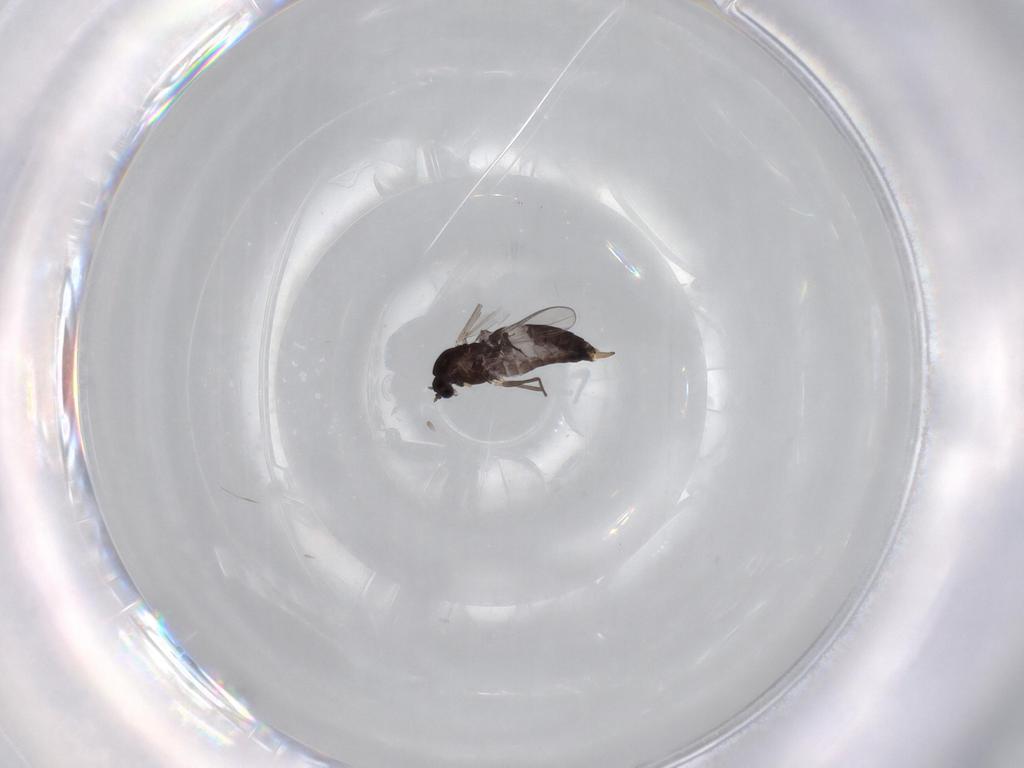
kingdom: Animalia
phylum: Arthropoda
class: Insecta
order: Diptera
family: Chironomidae
